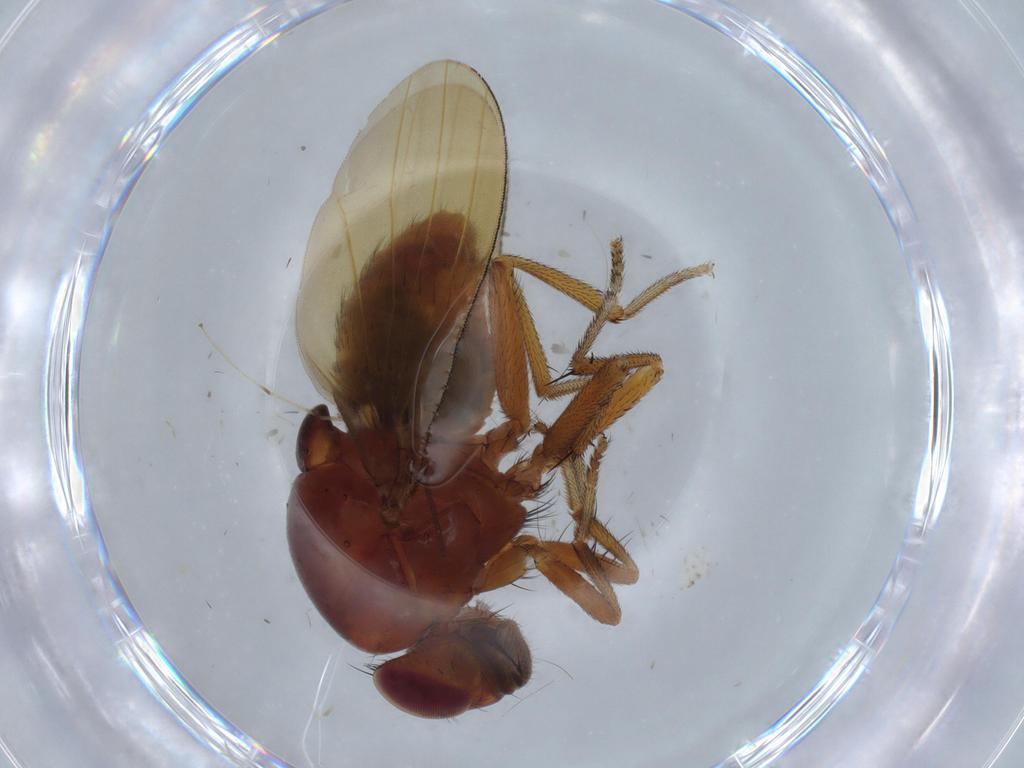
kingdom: Animalia
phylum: Arthropoda
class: Insecta
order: Diptera
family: Lauxaniidae
